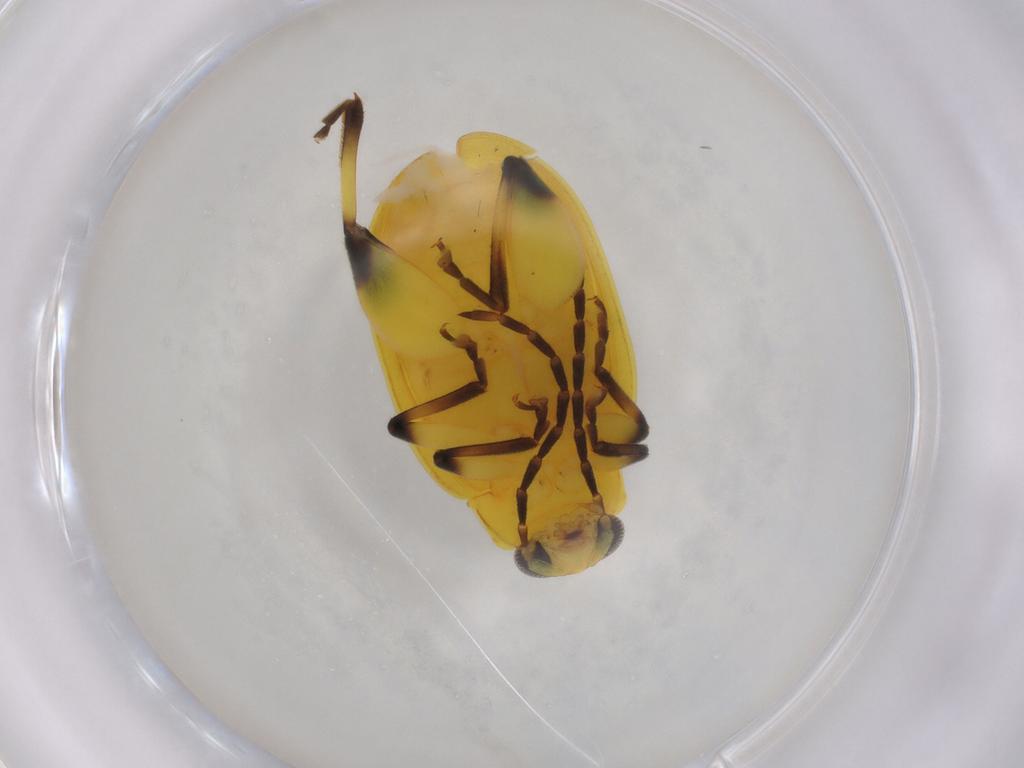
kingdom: Animalia
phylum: Arthropoda
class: Insecta
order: Coleoptera
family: Chrysomelidae
